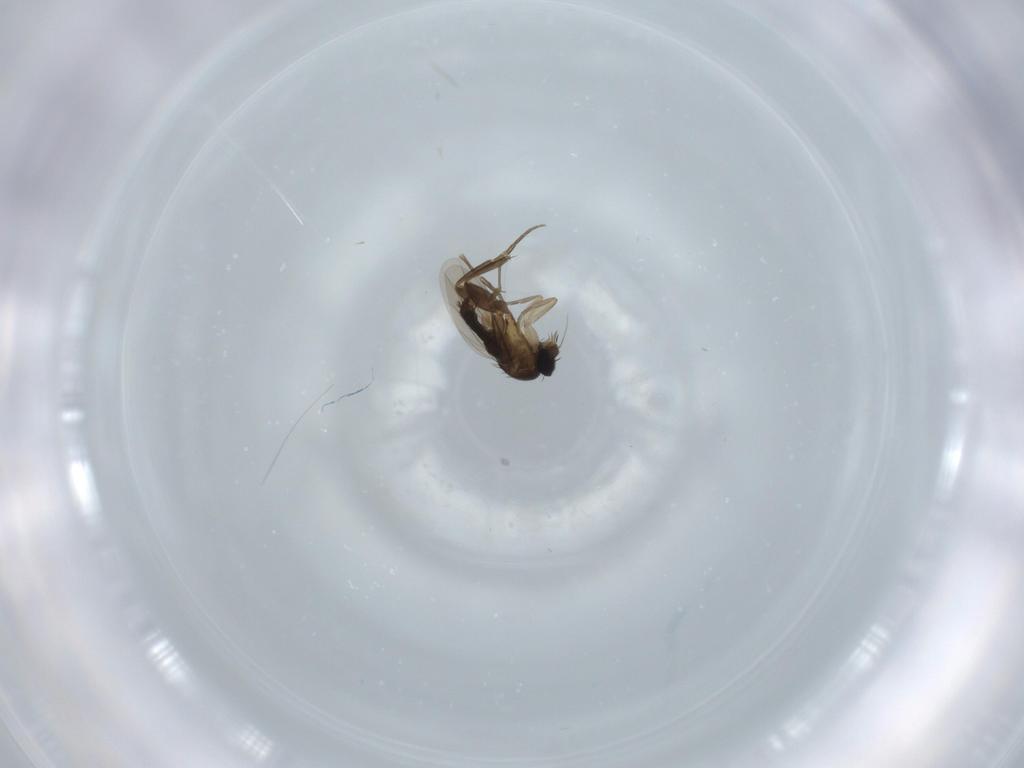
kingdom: Animalia
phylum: Arthropoda
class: Insecta
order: Diptera
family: Phoridae
